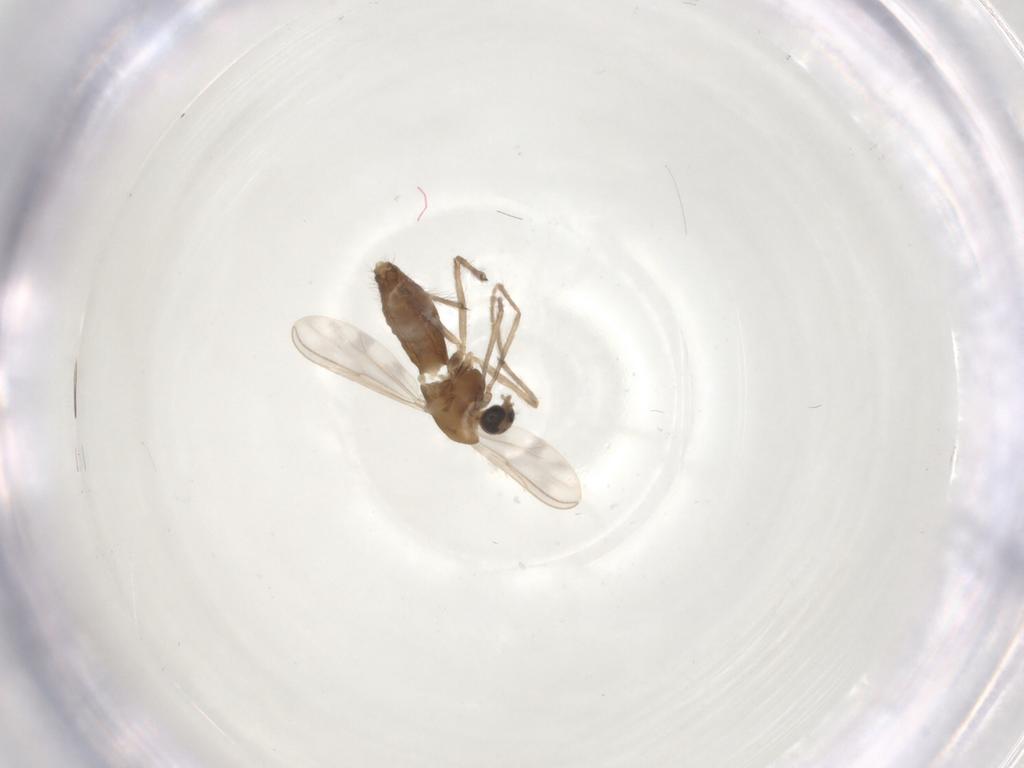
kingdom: Animalia
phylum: Arthropoda
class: Insecta
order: Diptera
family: Chironomidae
